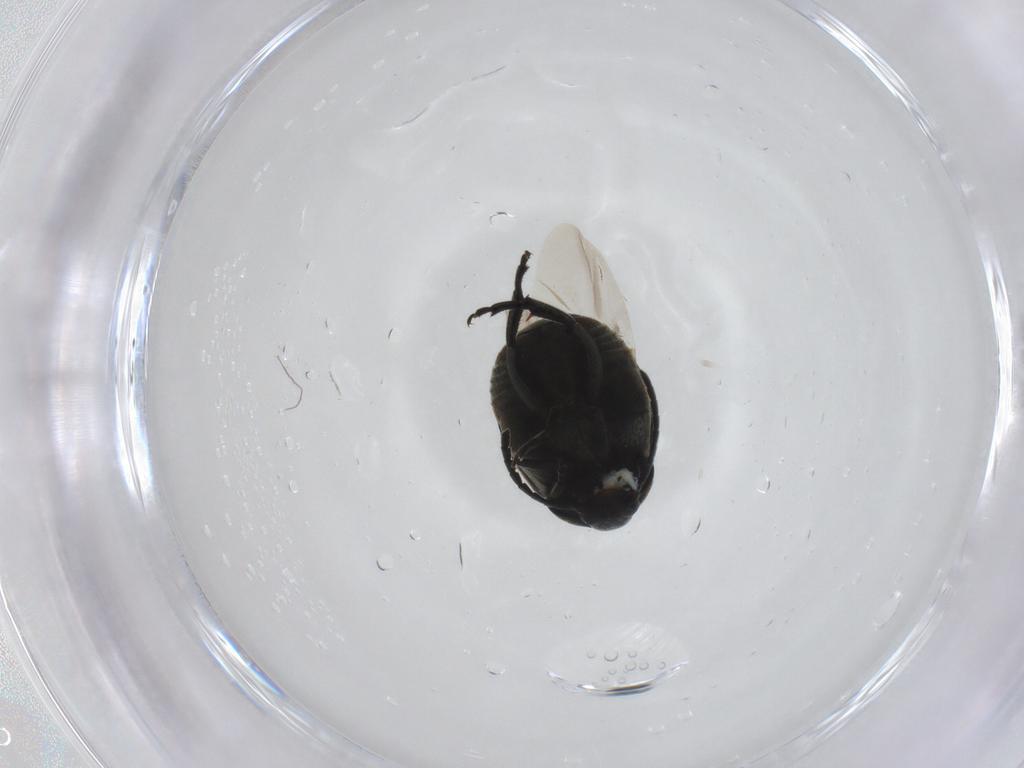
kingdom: Animalia
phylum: Arthropoda
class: Insecta
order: Coleoptera
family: Chrysomelidae
